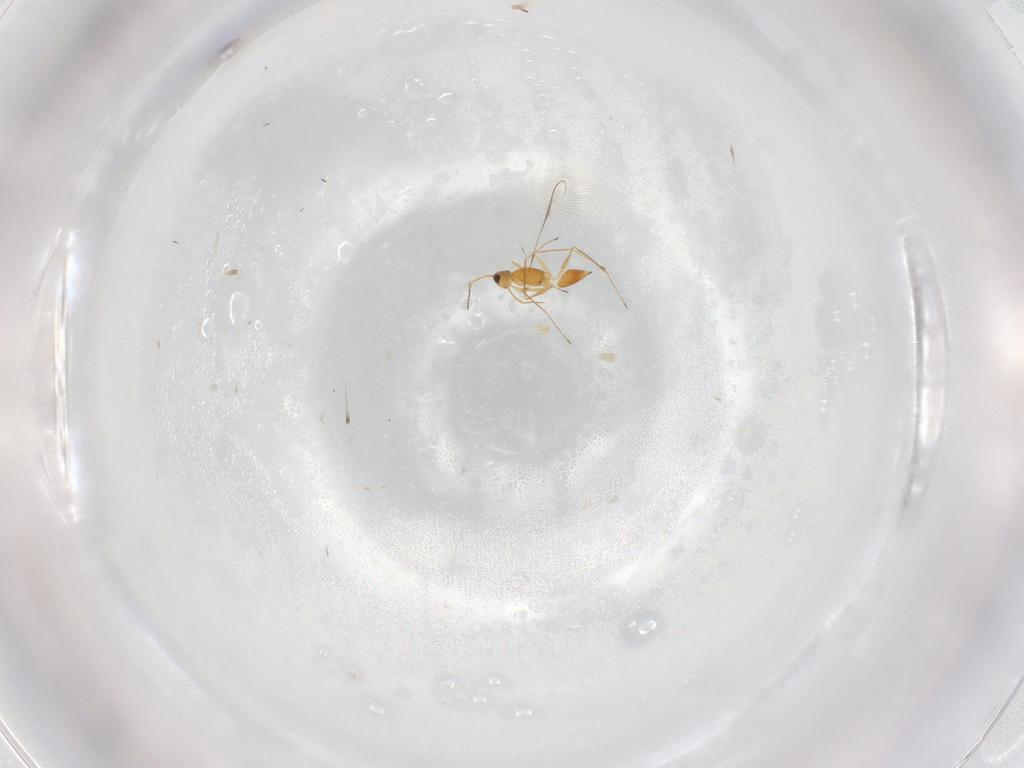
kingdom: Animalia
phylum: Arthropoda
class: Insecta
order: Hymenoptera
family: Mymaridae
